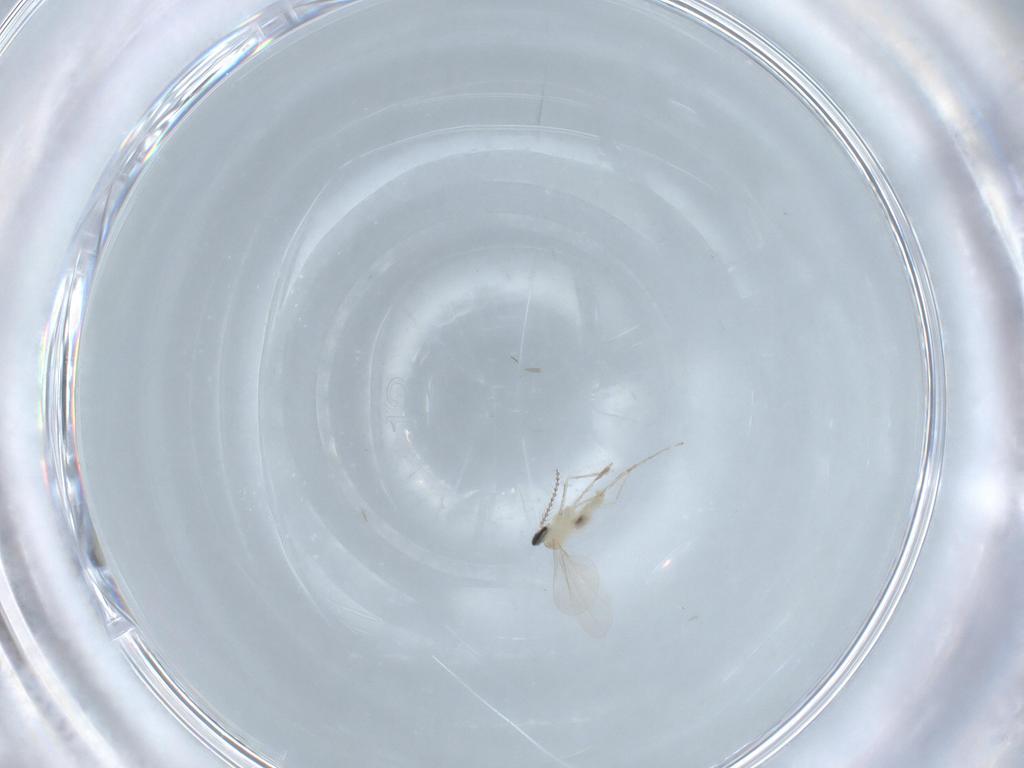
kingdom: Animalia
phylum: Arthropoda
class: Insecta
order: Diptera
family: Cecidomyiidae
